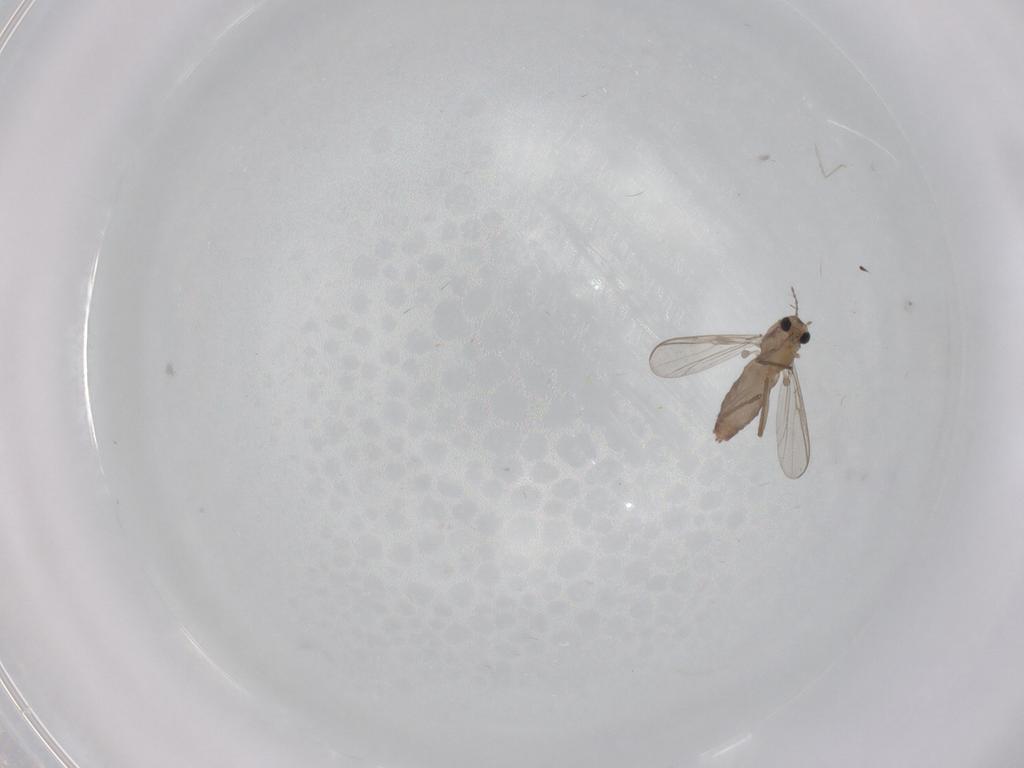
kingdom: Animalia
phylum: Arthropoda
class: Insecta
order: Diptera
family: Chironomidae
